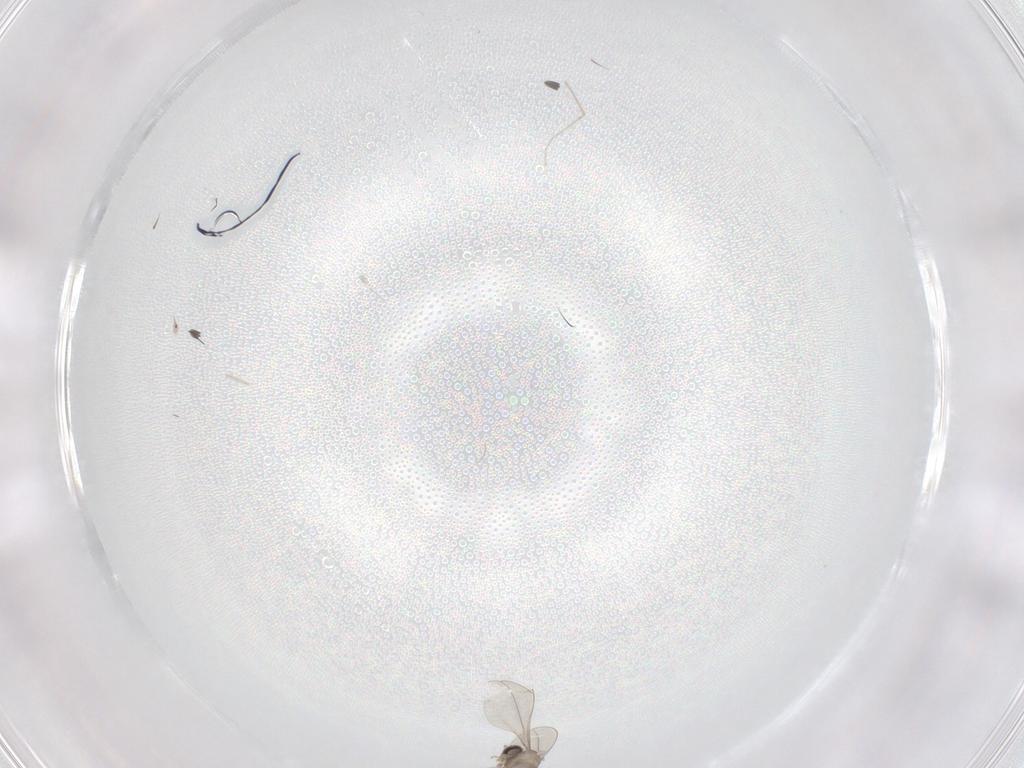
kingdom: Animalia
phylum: Arthropoda
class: Insecta
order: Diptera
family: Cecidomyiidae
